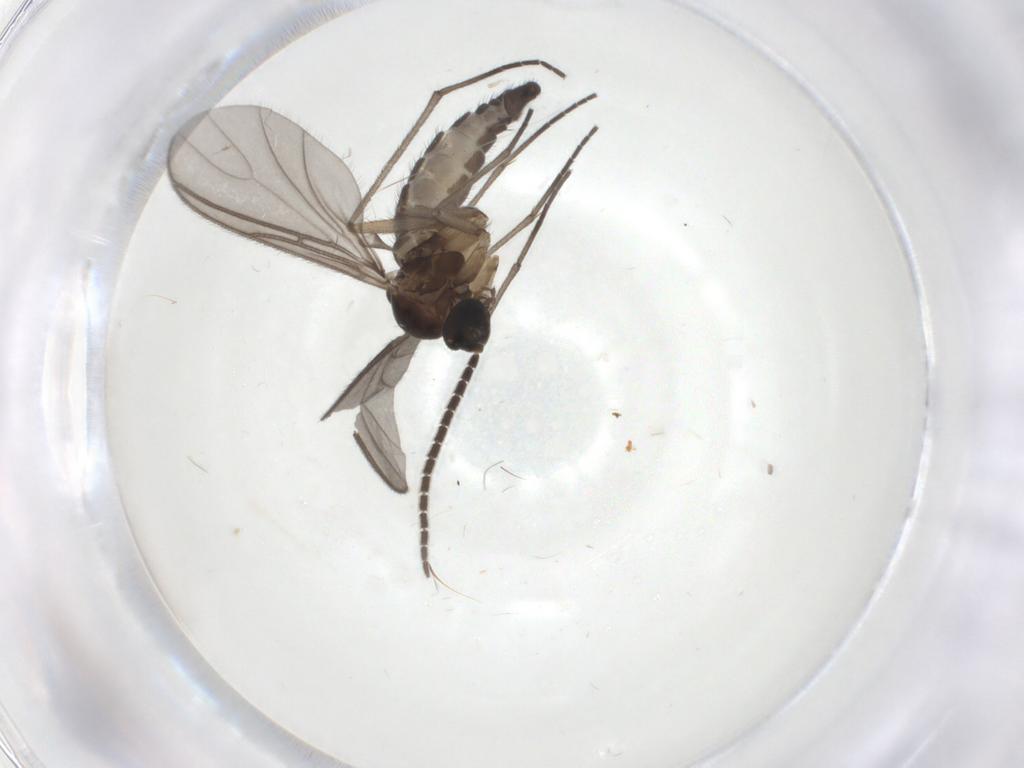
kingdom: Animalia
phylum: Arthropoda
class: Insecta
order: Diptera
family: Sciaridae
